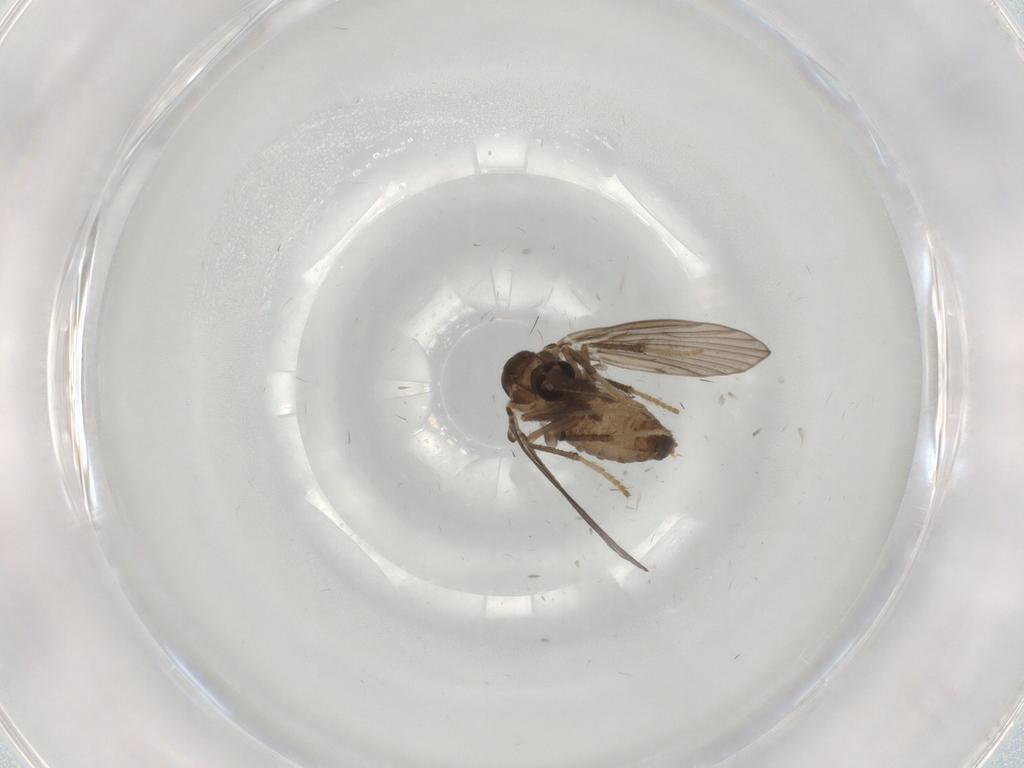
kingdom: Animalia
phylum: Arthropoda
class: Insecta
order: Diptera
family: Psychodidae
